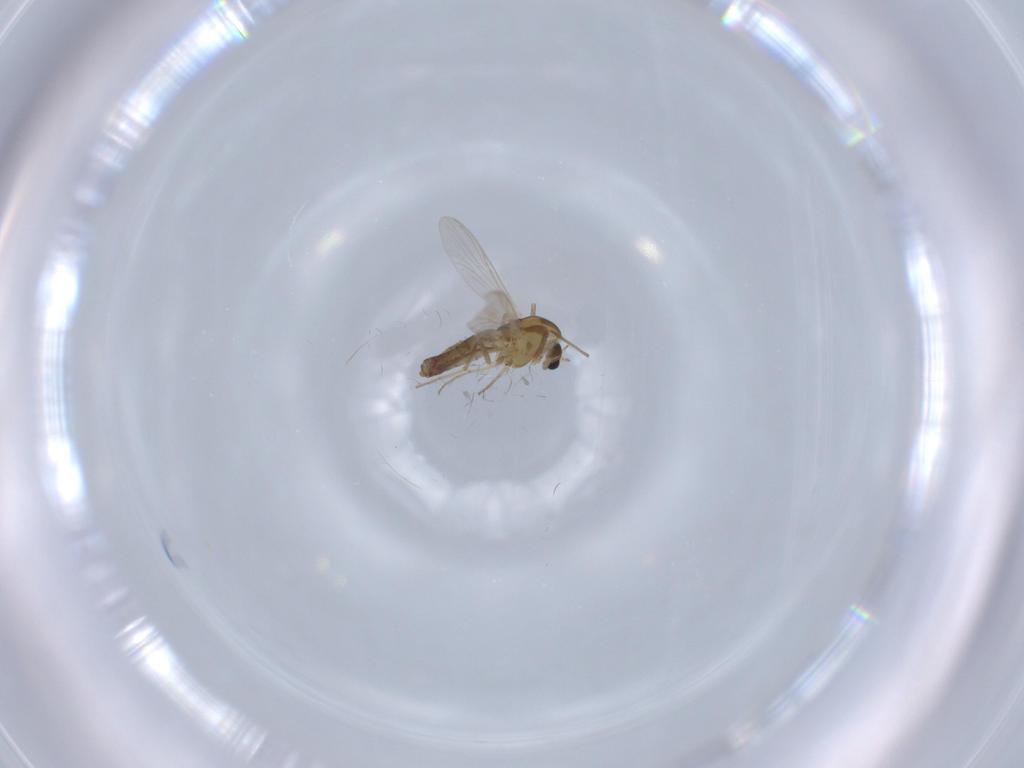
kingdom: Animalia
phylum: Arthropoda
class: Insecta
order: Diptera
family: Chironomidae
